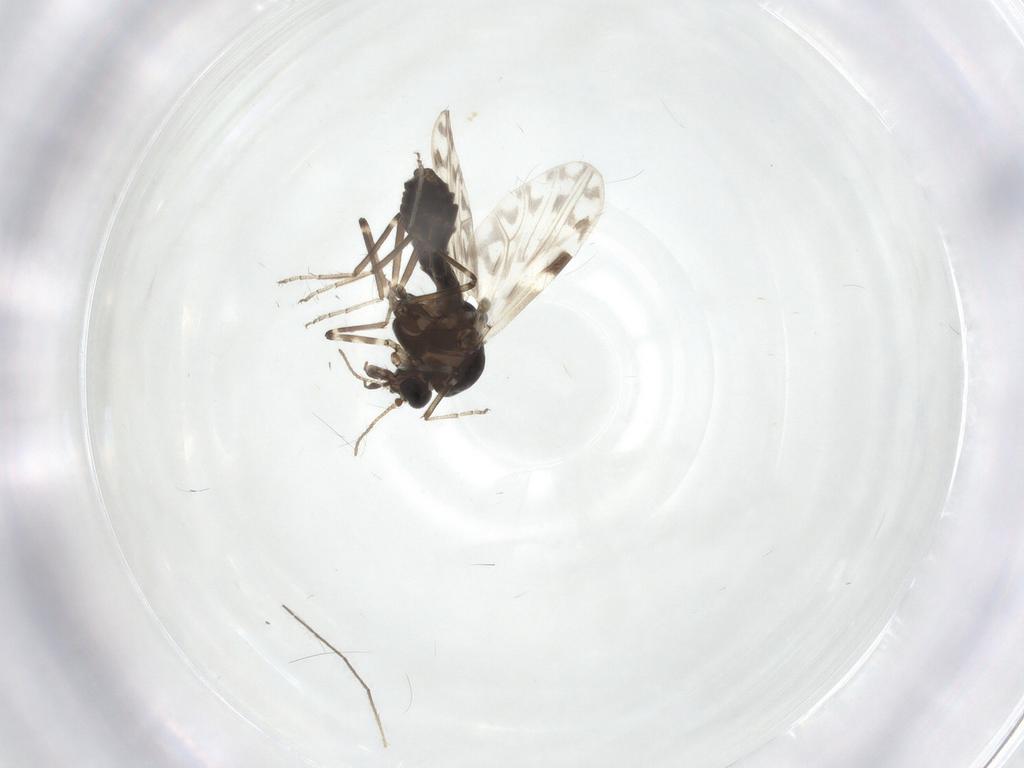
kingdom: Animalia
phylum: Arthropoda
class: Insecta
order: Diptera
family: Ceratopogonidae
